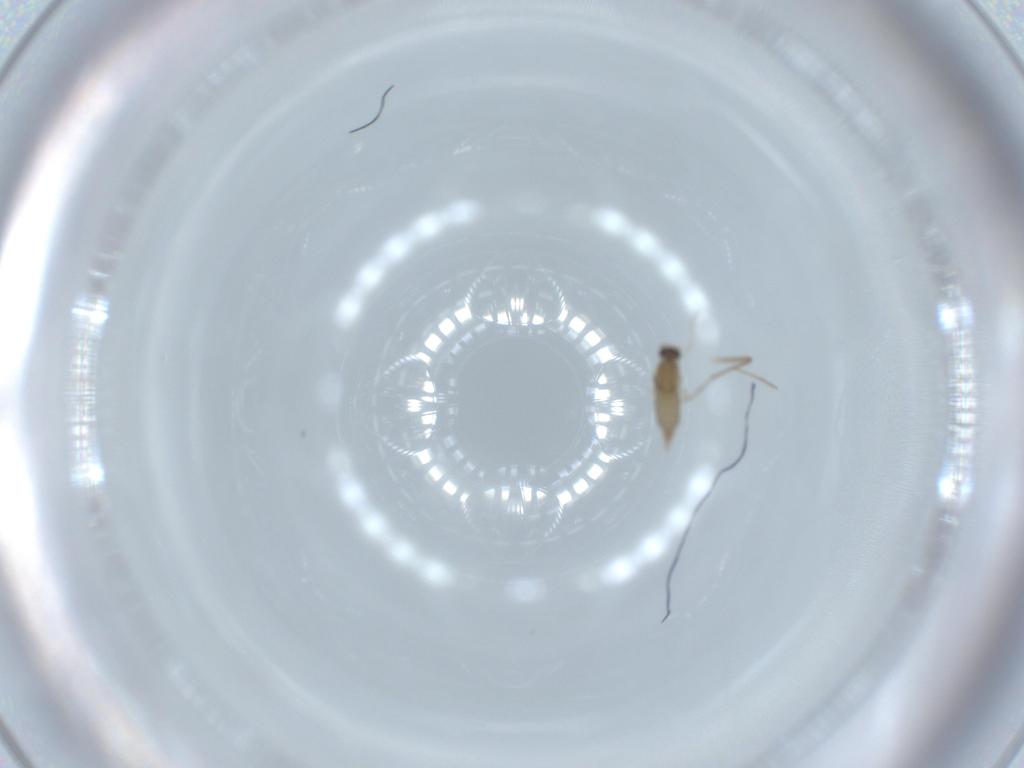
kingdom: Animalia
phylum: Arthropoda
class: Insecta
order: Diptera
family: Cecidomyiidae
